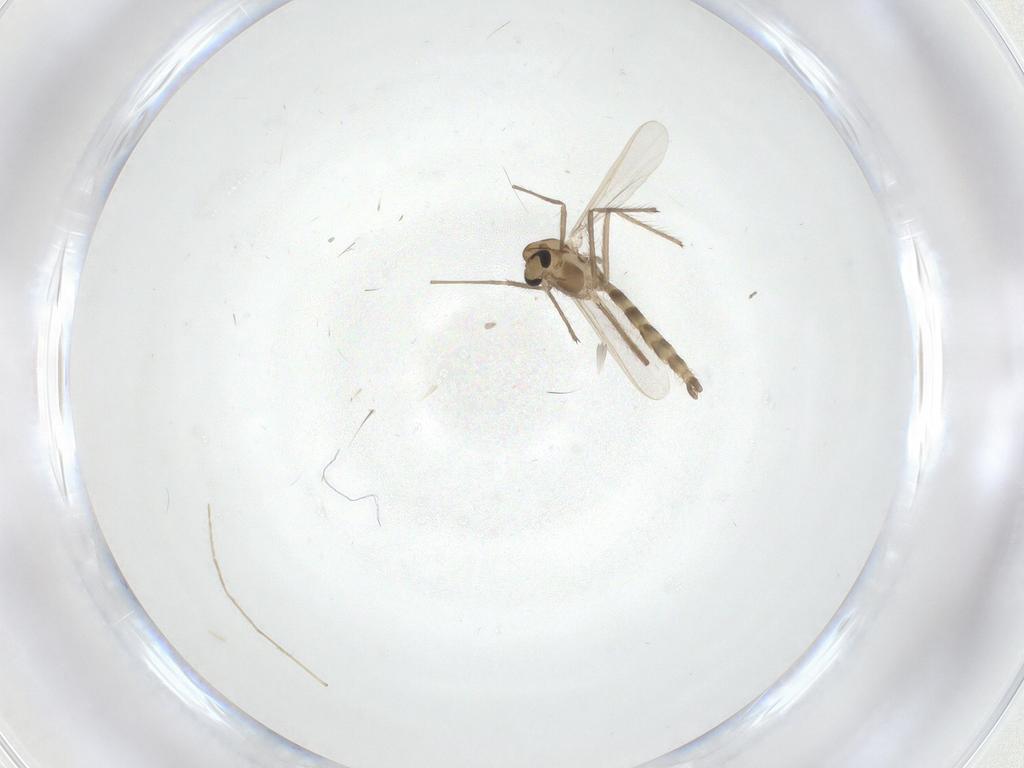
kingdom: Animalia
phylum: Arthropoda
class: Insecta
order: Diptera
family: Chironomidae
